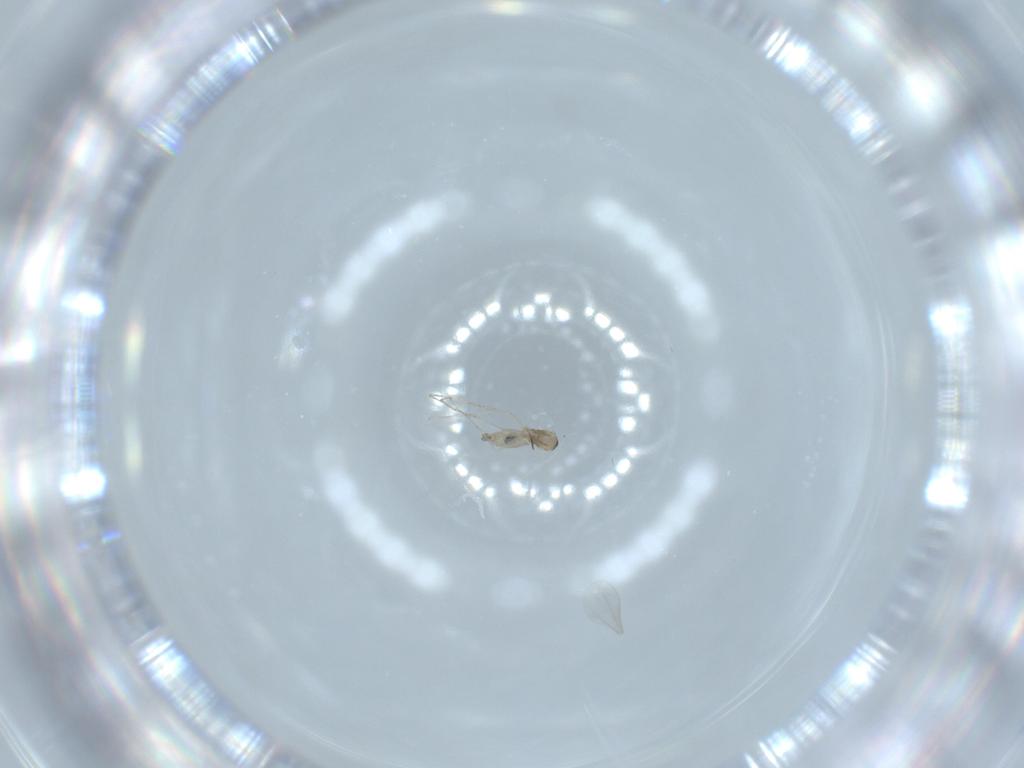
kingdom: Animalia
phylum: Arthropoda
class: Insecta
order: Diptera
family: Cecidomyiidae
